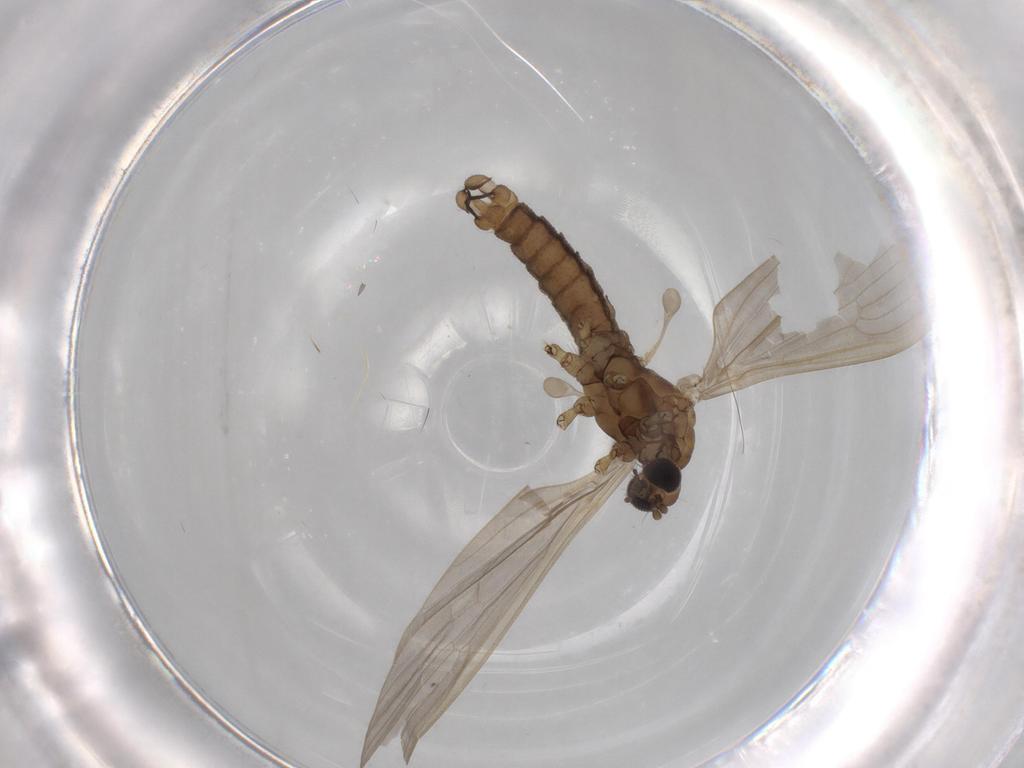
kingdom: Animalia
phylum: Arthropoda
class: Insecta
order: Diptera
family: Limoniidae
